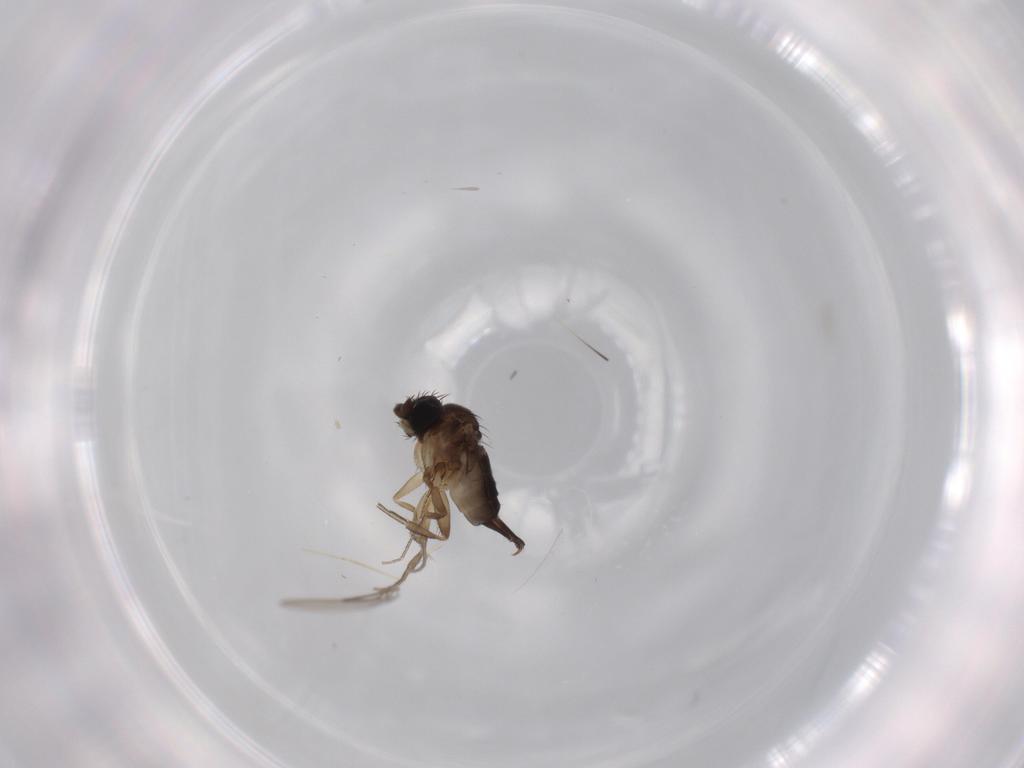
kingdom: Animalia
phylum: Arthropoda
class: Insecta
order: Diptera
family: Phoridae
